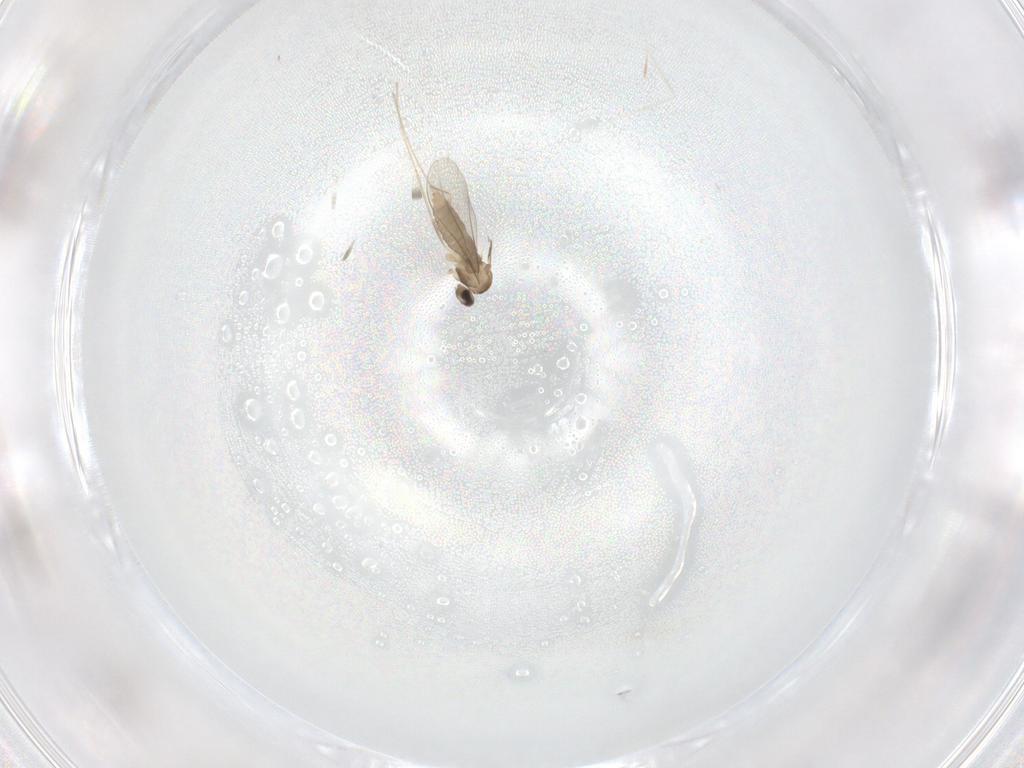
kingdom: Animalia
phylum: Arthropoda
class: Insecta
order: Diptera
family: Cecidomyiidae
